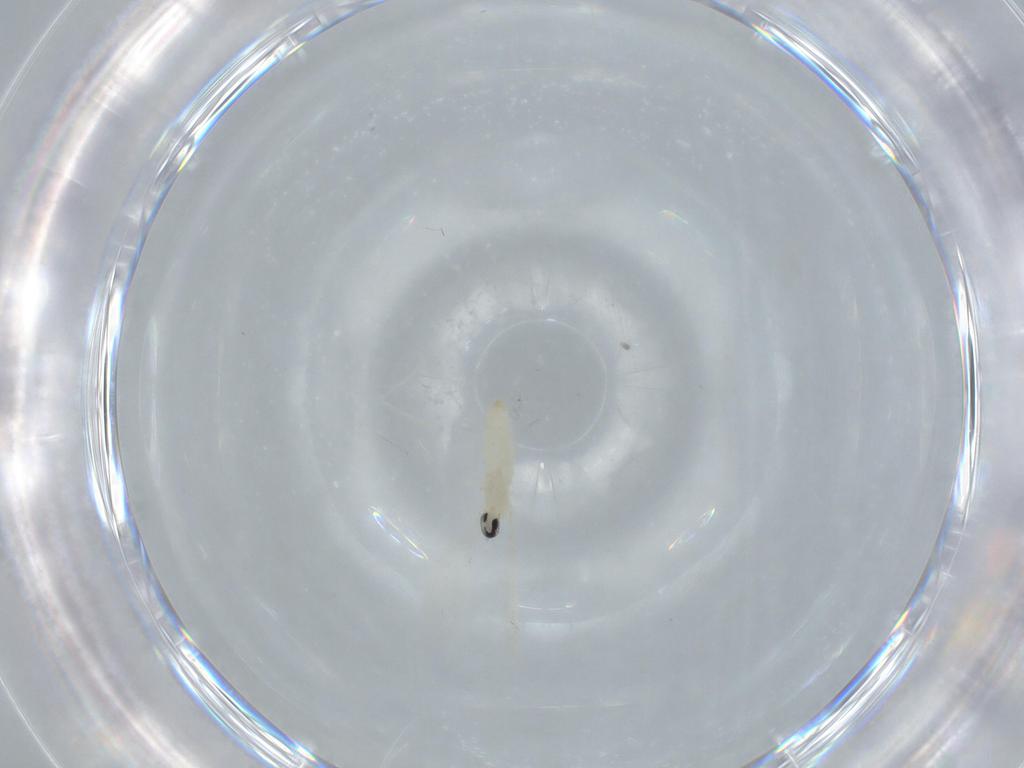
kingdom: Animalia
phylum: Arthropoda
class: Insecta
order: Diptera
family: Cecidomyiidae
